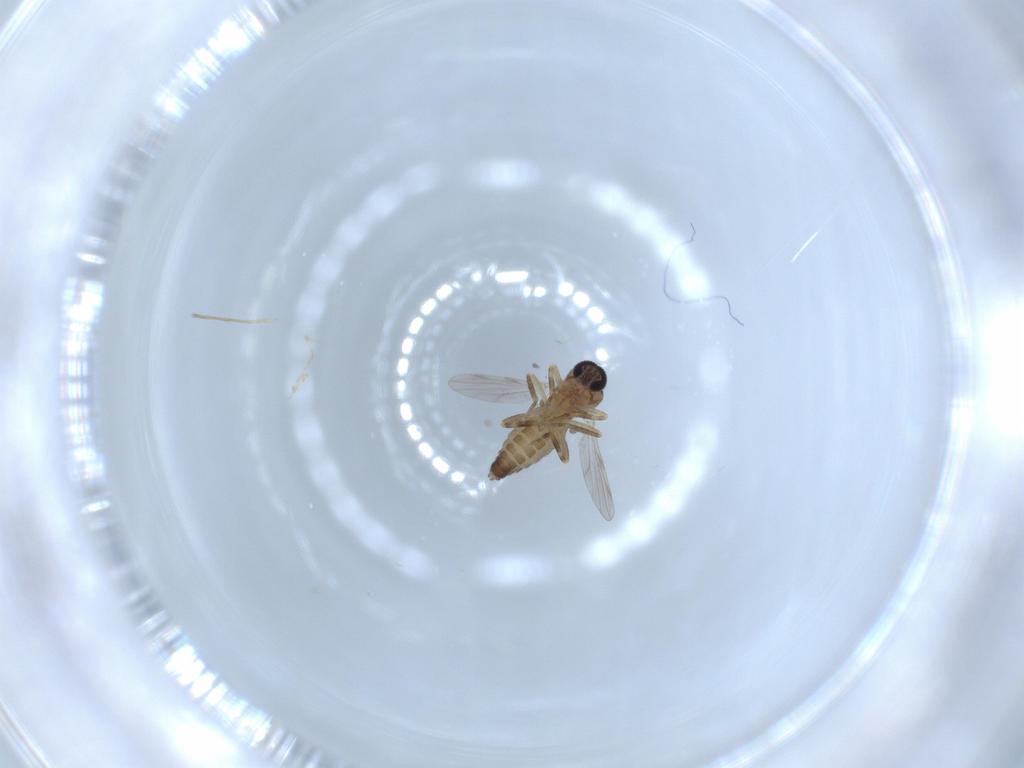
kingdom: Animalia
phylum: Arthropoda
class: Insecta
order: Diptera
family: Ceratopogonidae
